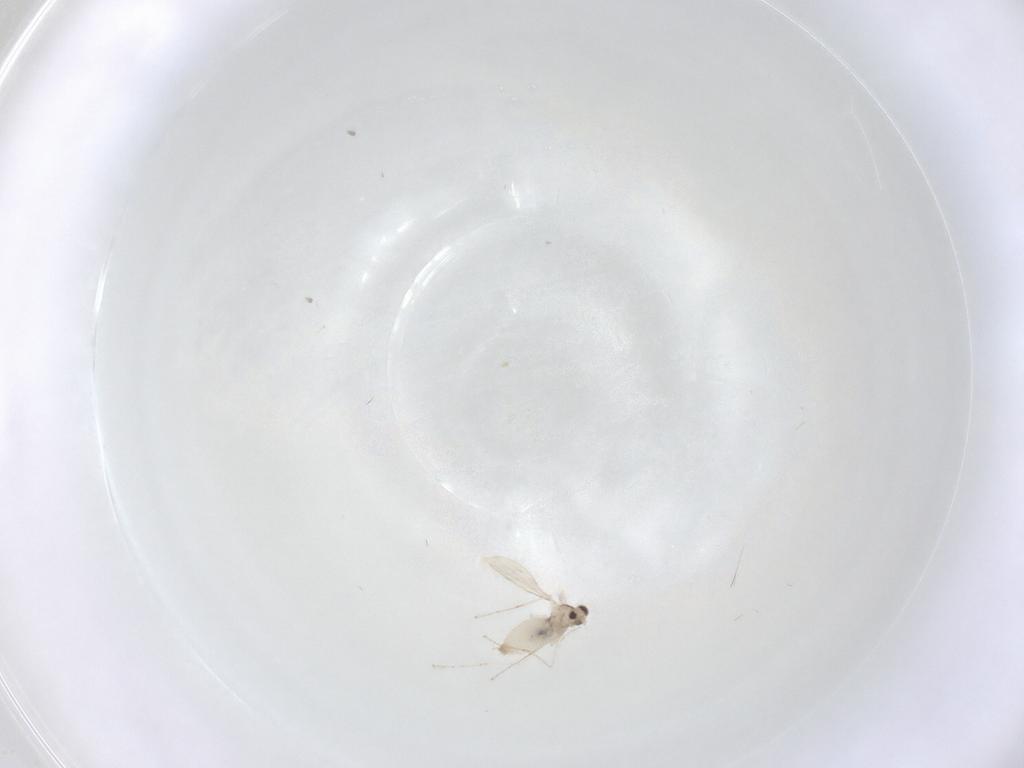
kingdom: Animalia
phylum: Arthropoda
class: Insecta
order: Diptera
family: Cecidomyiidae
